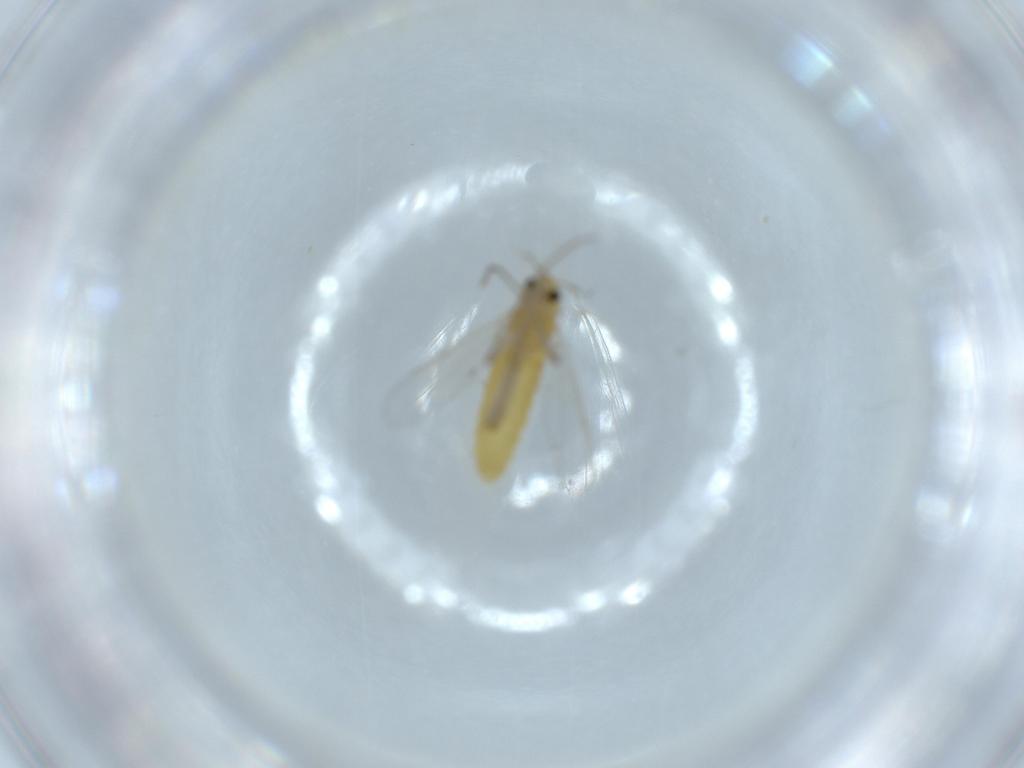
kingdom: Animalia
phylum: Arthropoda
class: Insecta
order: Diptera
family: Chironomidae
